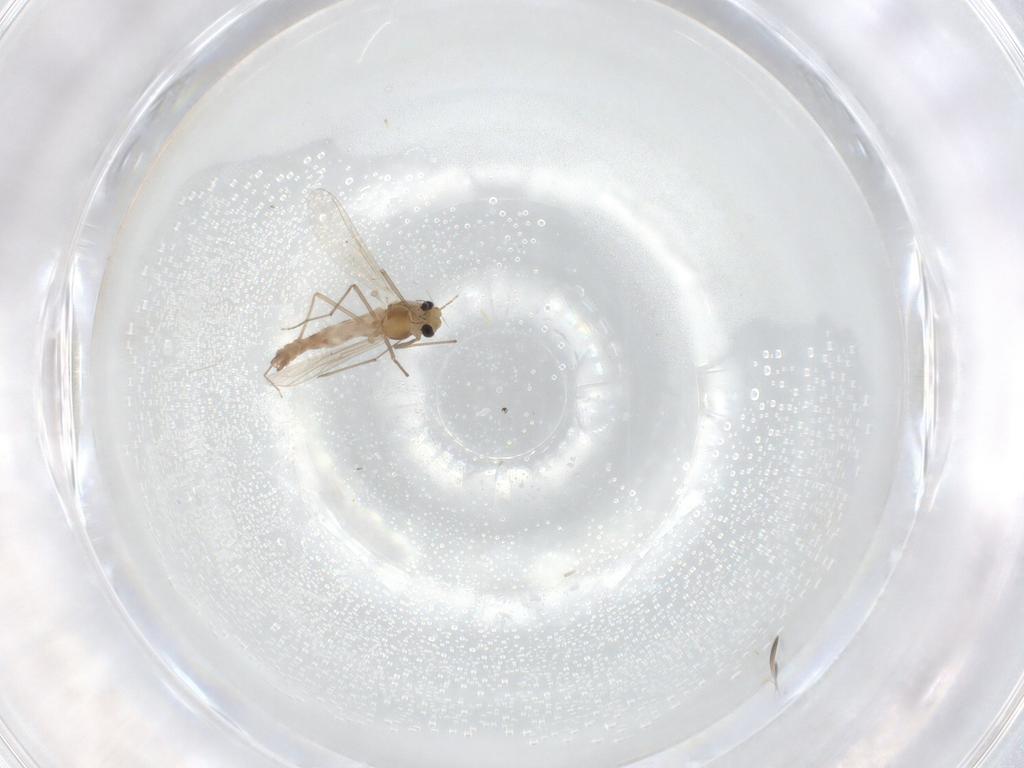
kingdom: Animalia
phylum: Arthropoda
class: Insecta
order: Diptera
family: Chironomidae
